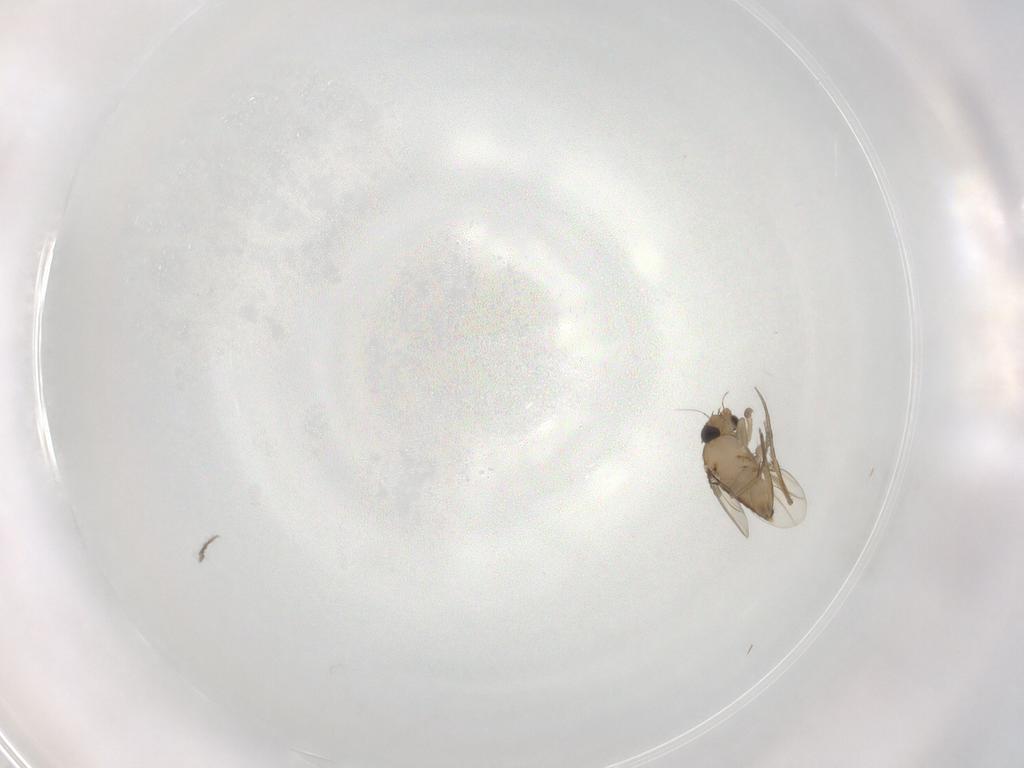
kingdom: Animalia
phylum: Arthropoda
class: Insecta
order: Diptera
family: Phoridae
